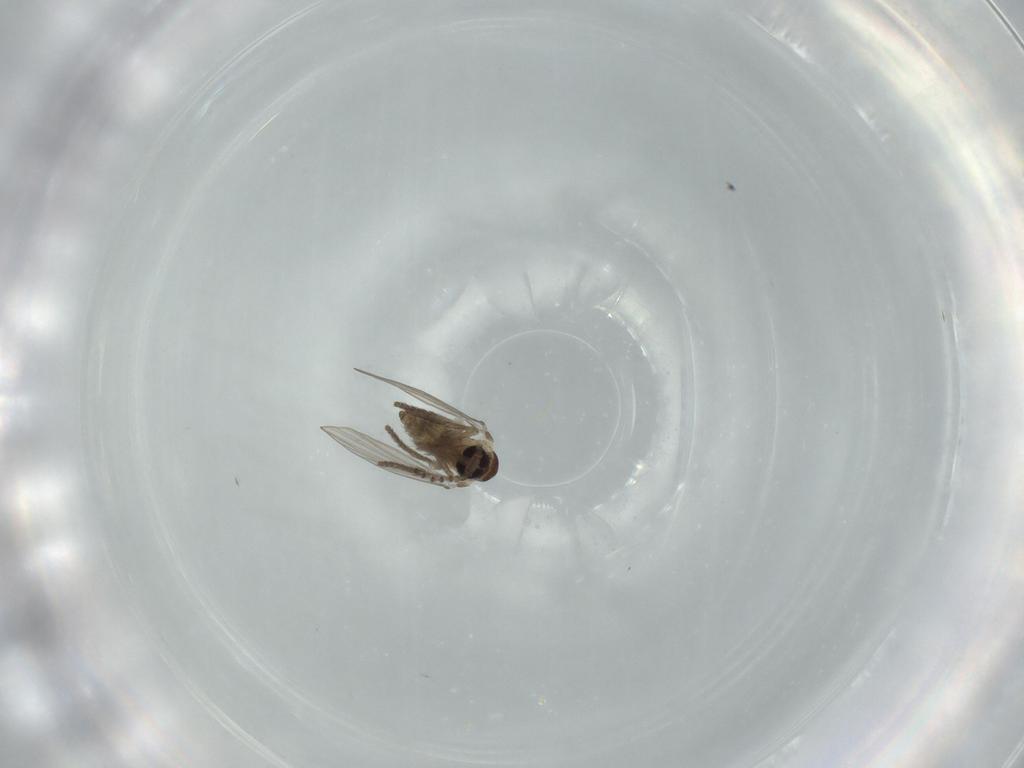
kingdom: Animalia
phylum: Arthropoda
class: Insecta
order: Diptera
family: Psychodidae
